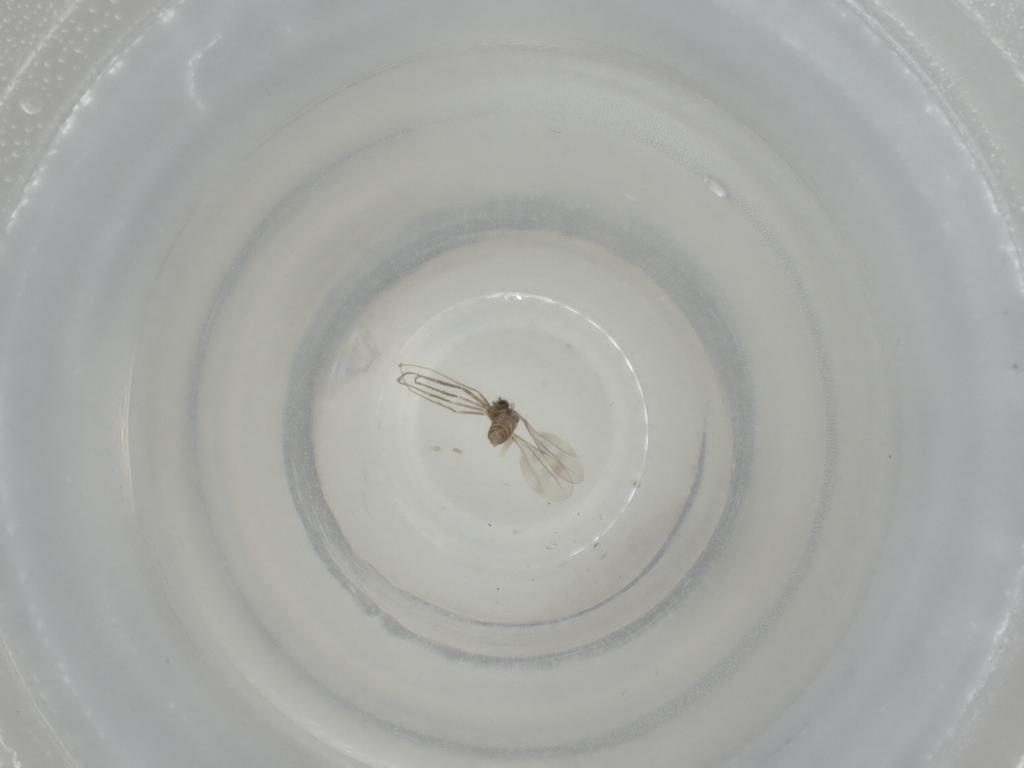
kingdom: Animalia
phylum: Arthropoda
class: Insecta
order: Diptera
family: Cecidomyiidae
